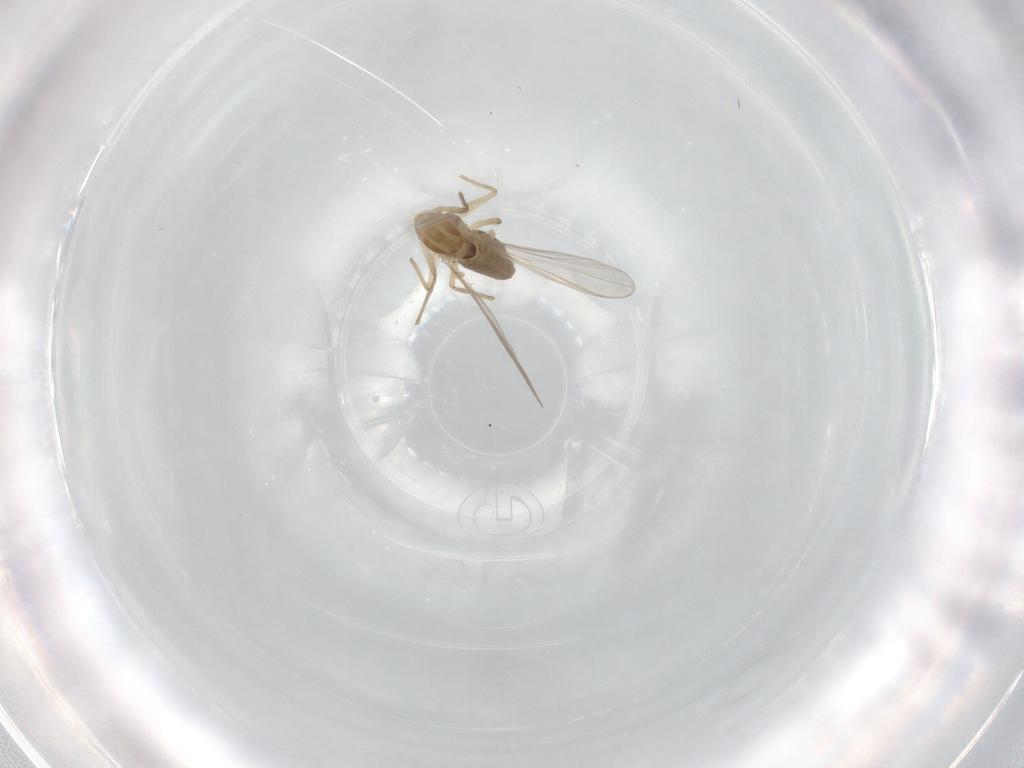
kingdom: Animalia
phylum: Arthropoda
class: Insecta
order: Diptera
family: Chironomidae
